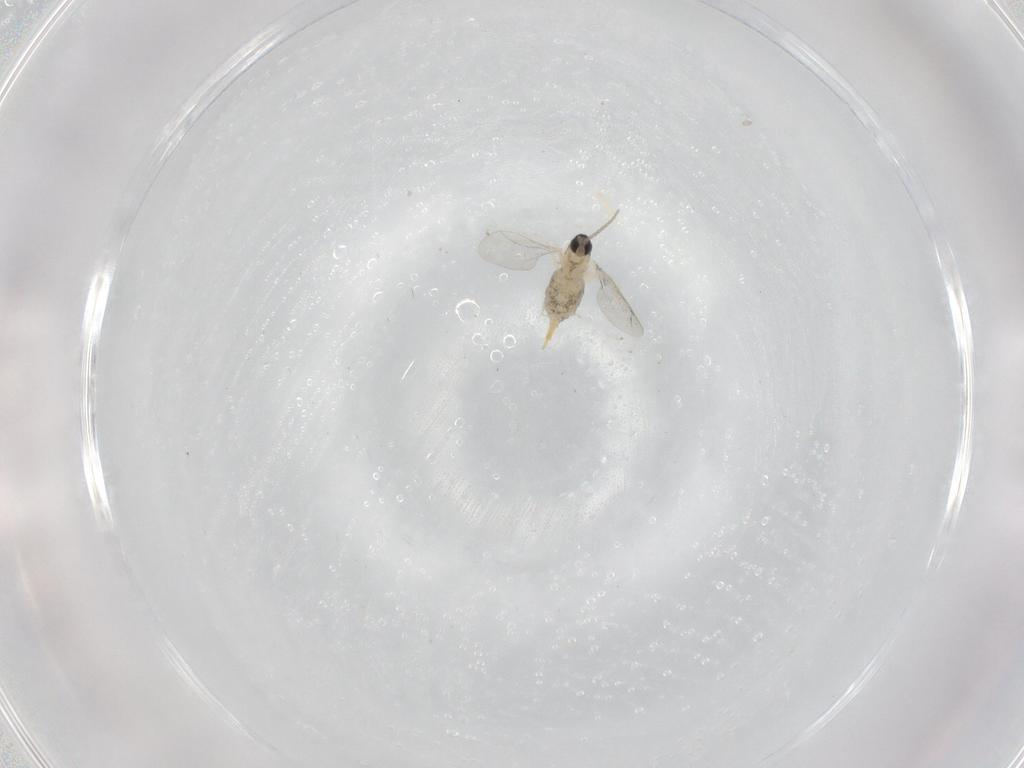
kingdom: Animalia
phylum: Arthropoda
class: Insecta
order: Diptera
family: Cecidomyiidae
